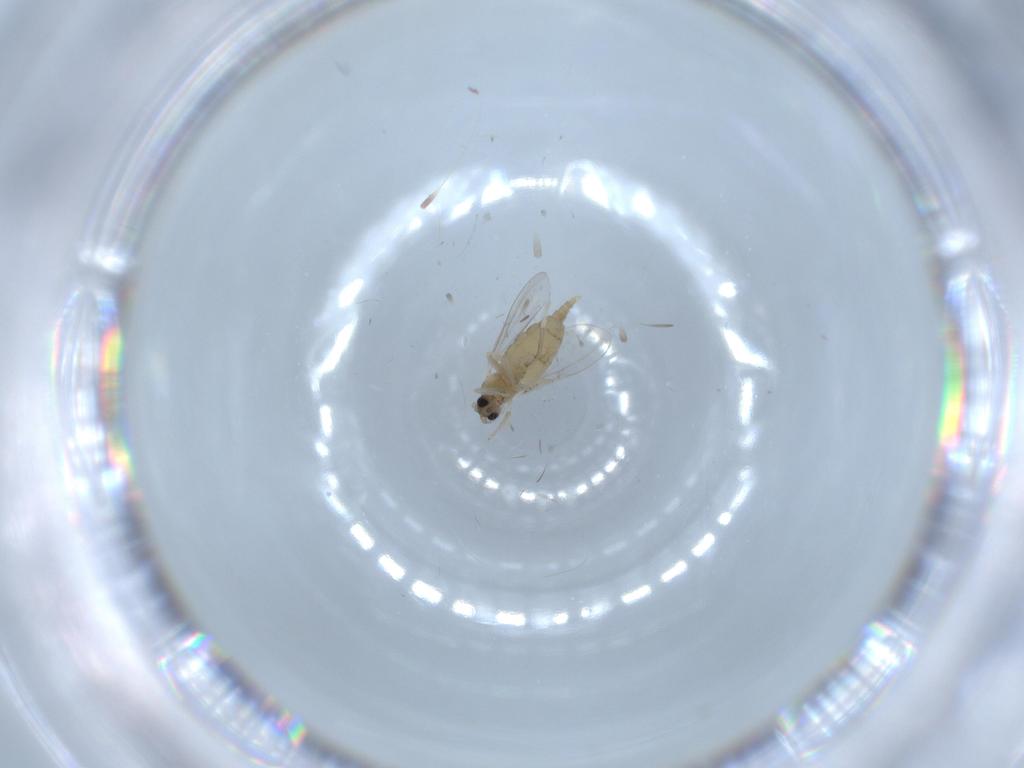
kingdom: Animalia
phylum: Arthropoda
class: Insecta
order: Diptera
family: Cecidomyiidae
